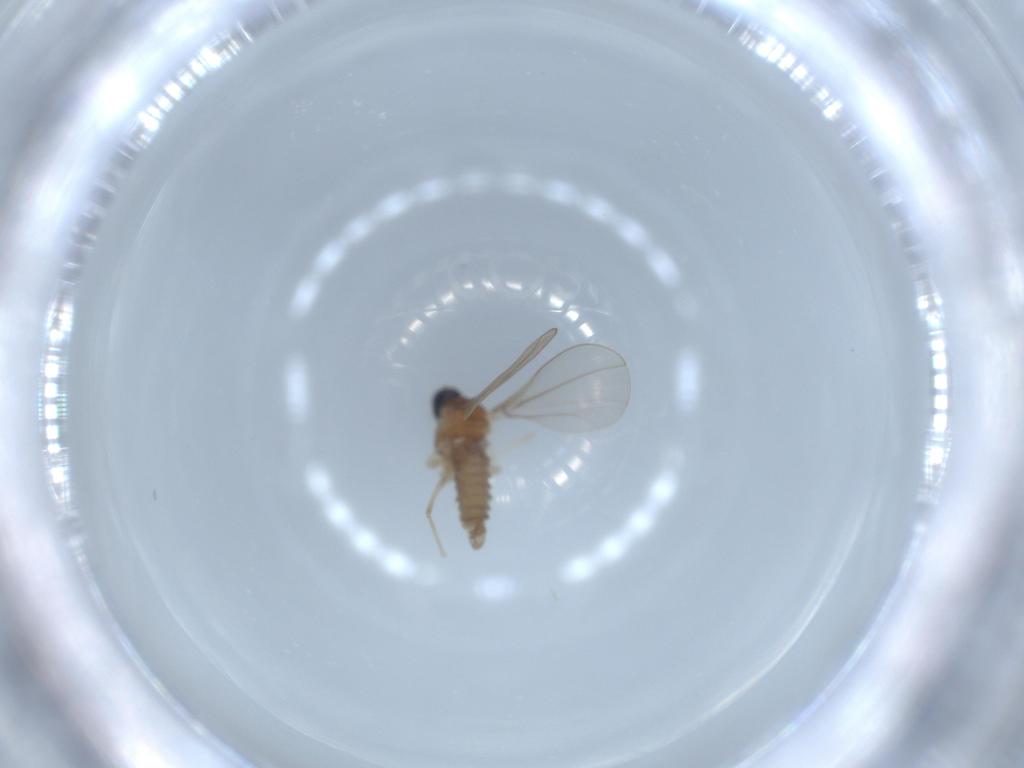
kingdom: Animalia
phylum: Arthropoda
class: Insecta
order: Diptera
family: Cecidomyiidae
